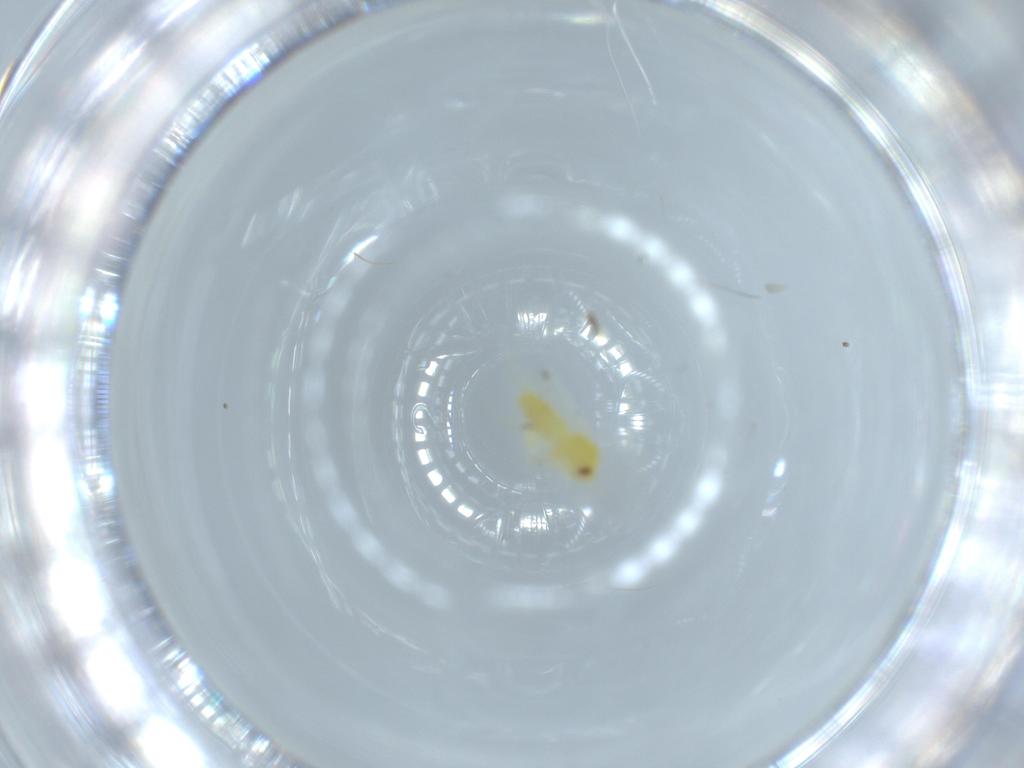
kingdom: Animalia
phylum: Arthropoda
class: Insecta
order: Hemiptera
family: Aleyrodidae
